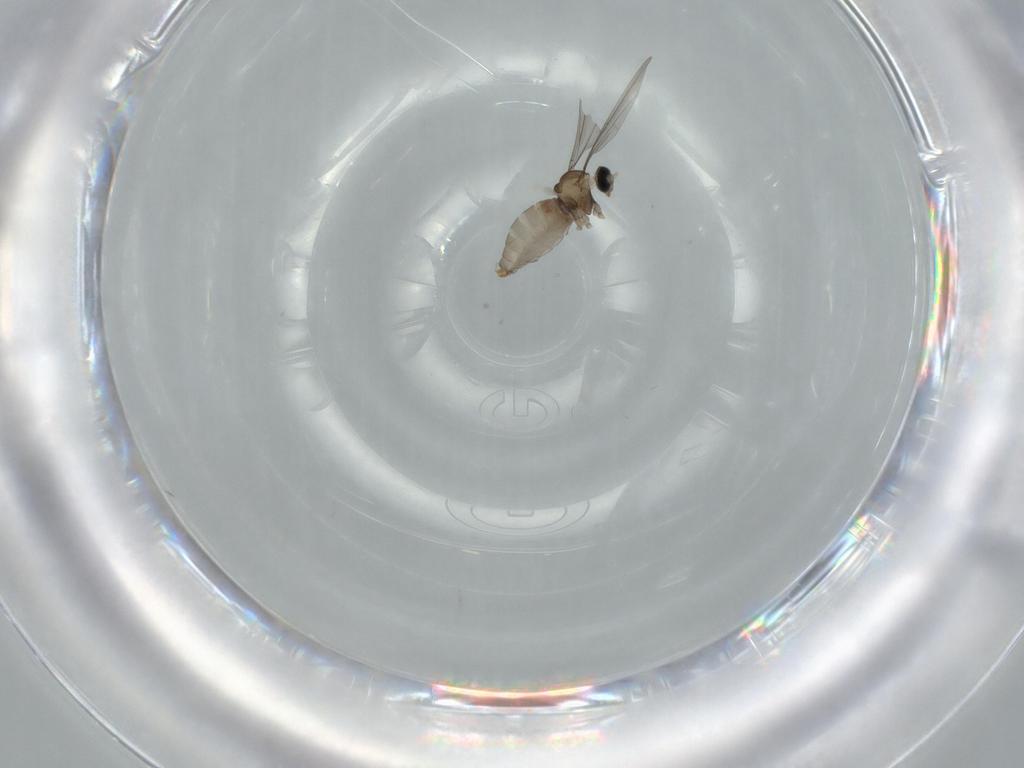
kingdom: Animalia
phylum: Arthropoda
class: Insecta
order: Diptera
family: Cecidomyiidae
